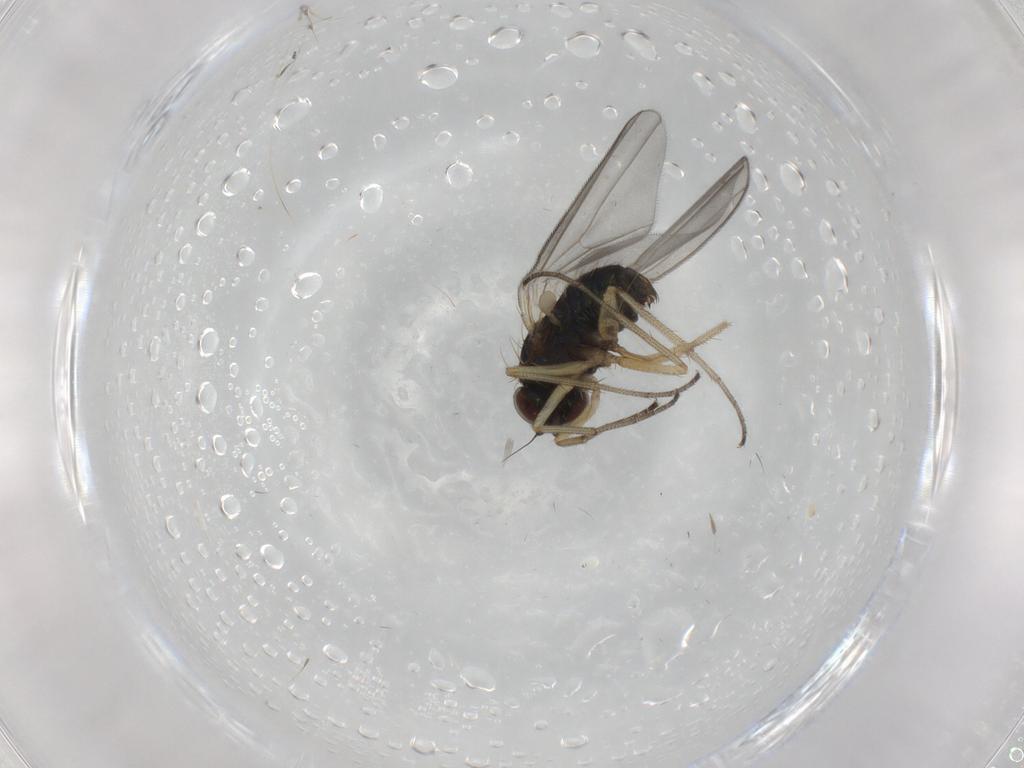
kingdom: Animalia
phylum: Arthropoda
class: Insecta
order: Diptera
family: Dolichopodidae
